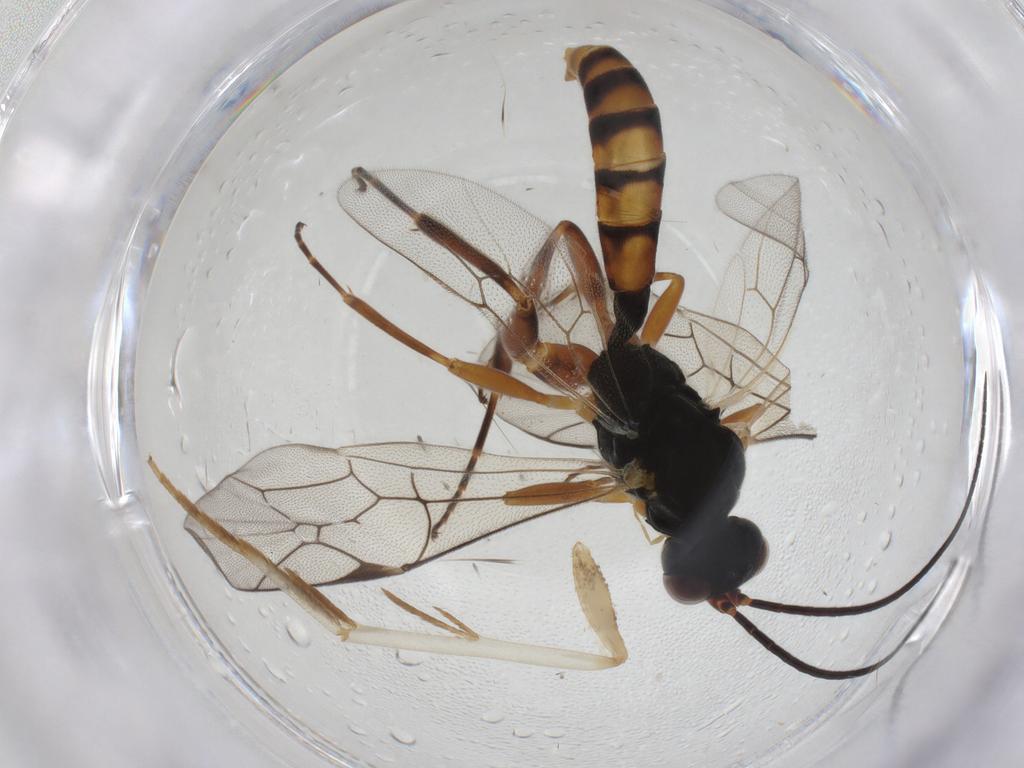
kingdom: Animalia
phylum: Arthropoda
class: Insecta
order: Hymenoptera
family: Ichneumonidae
